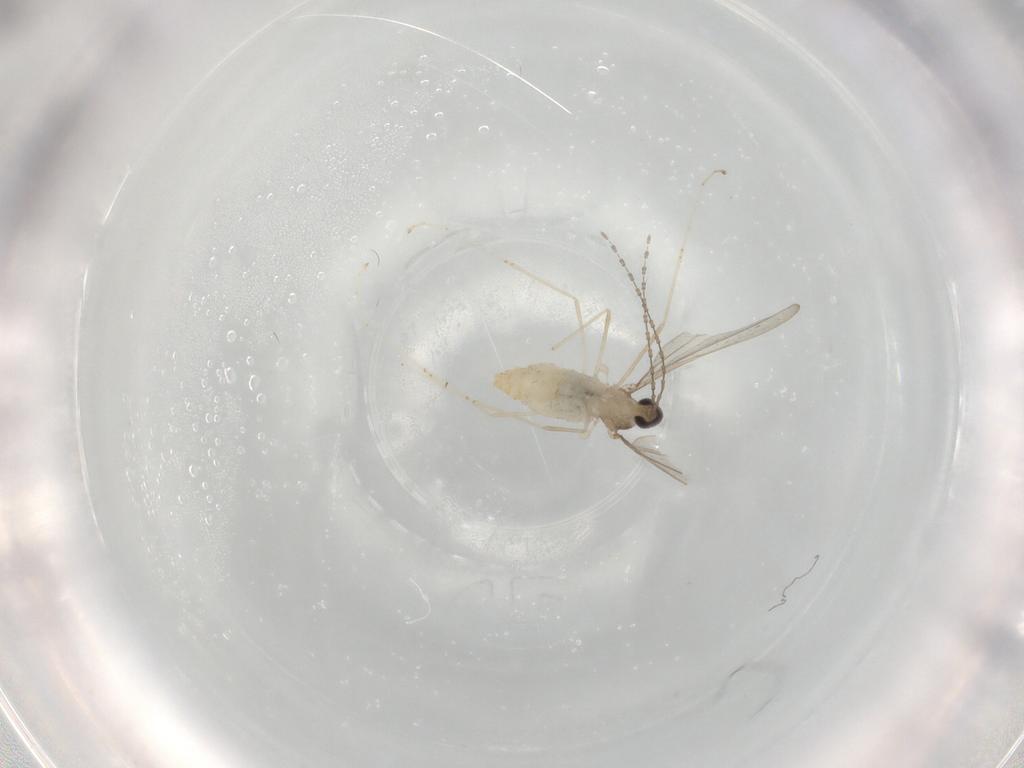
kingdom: Animalia
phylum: Arthropoda
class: Insecta
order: Diptera
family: Cecidomyiidae
